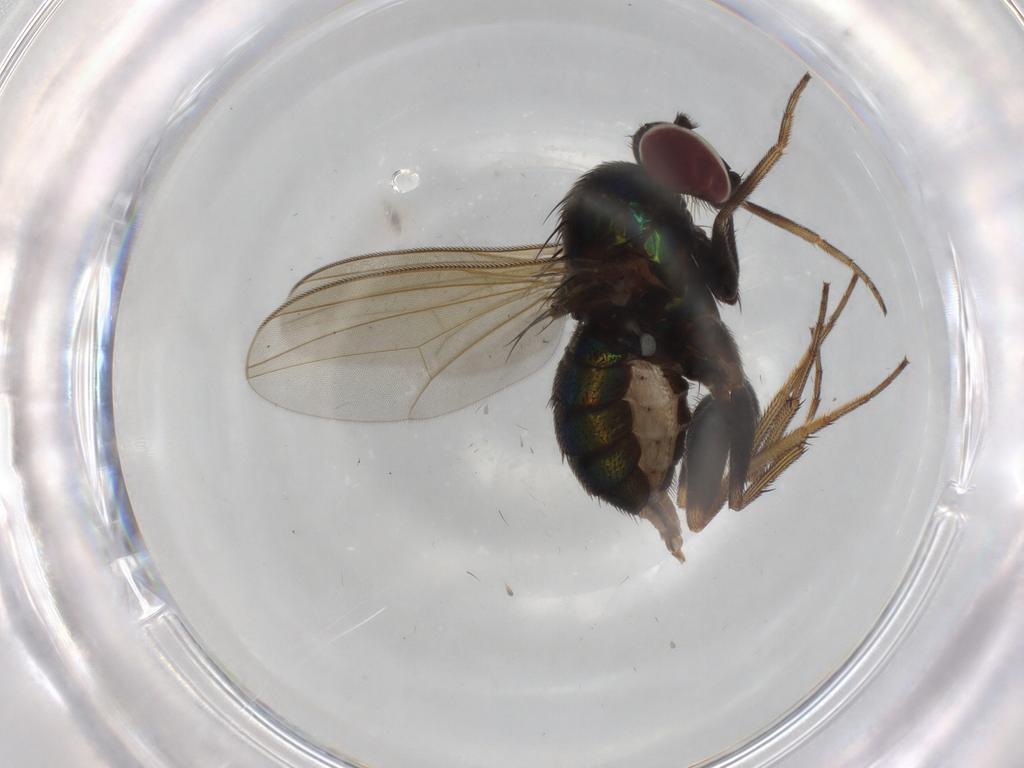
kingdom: Animalia
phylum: Arthropoda
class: Insecta
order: Diptera
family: Dolichopodidae
